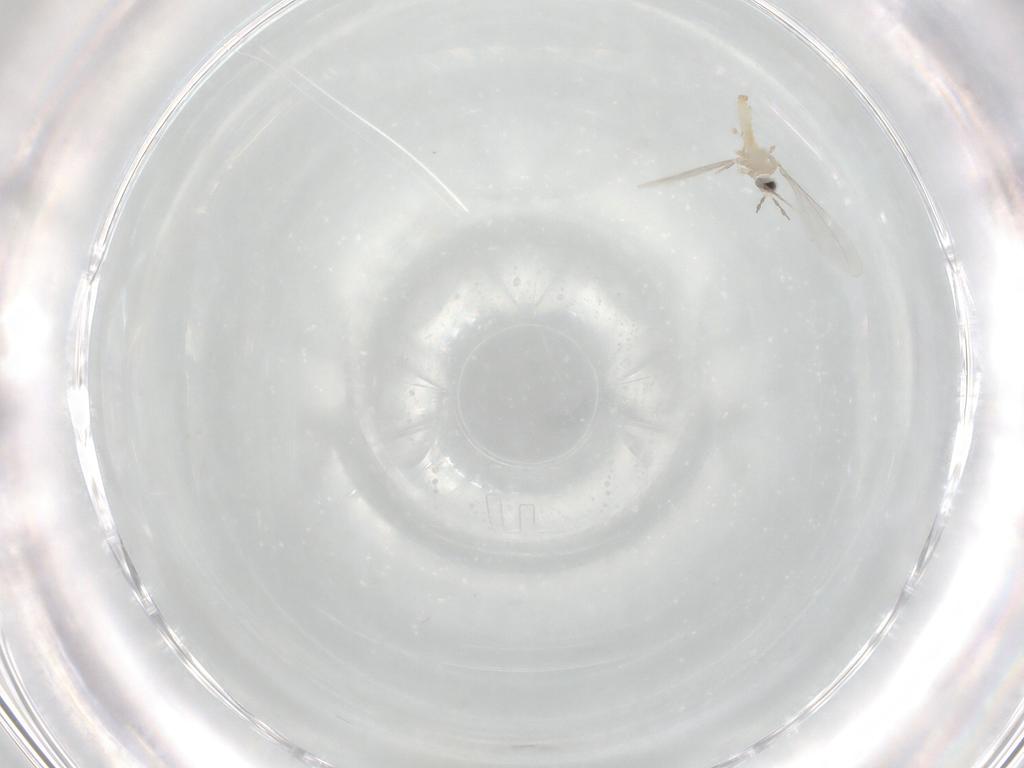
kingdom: Animalia
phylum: Arthropoda
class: Insecta
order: Diptera
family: Cecidomyiidae
